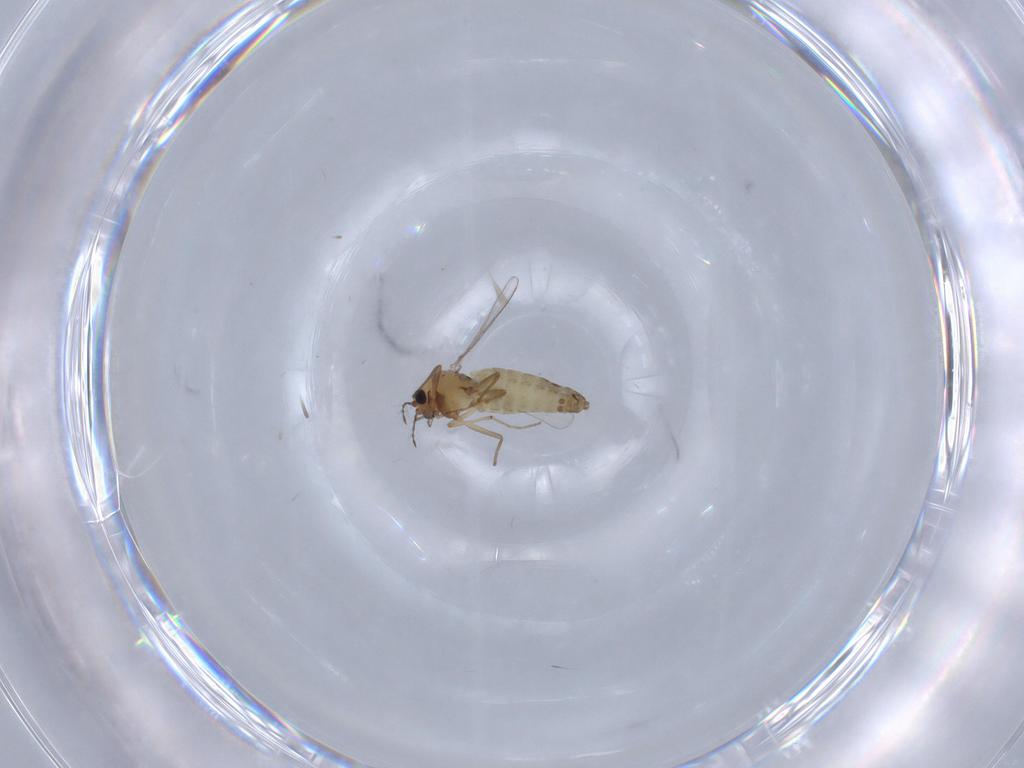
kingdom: Animalia
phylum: Arthropoda
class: Insecta
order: Diptera
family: Chironomidae
